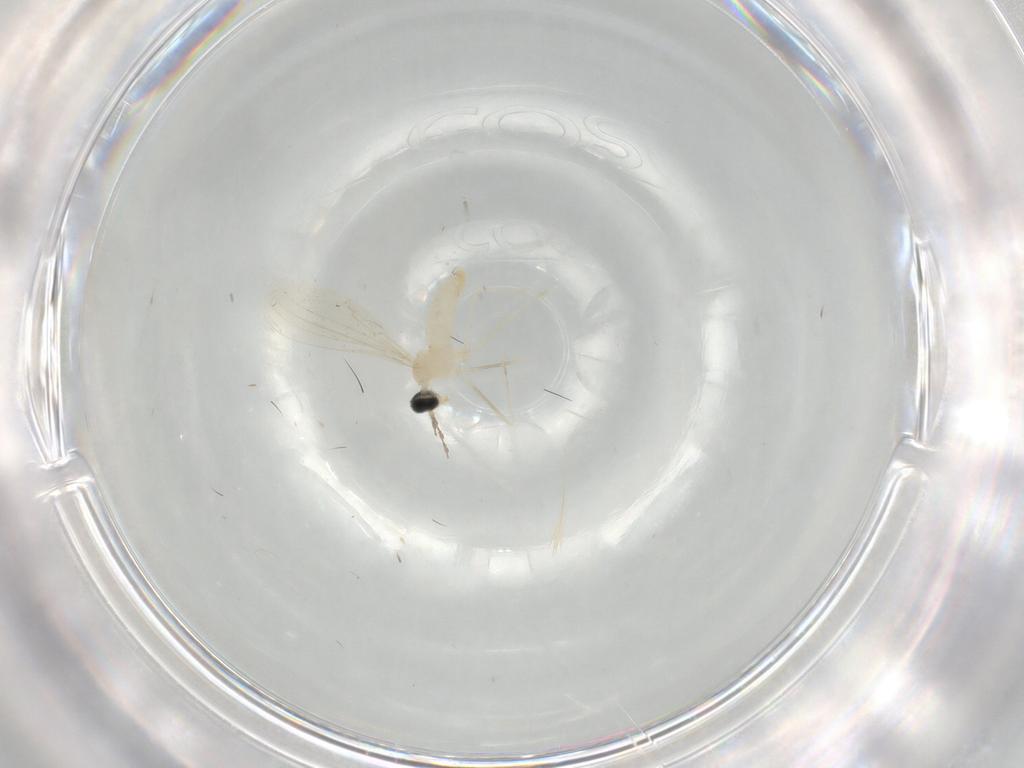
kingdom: Animalia
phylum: Arthropoda
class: Insecta
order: Diptera
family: Cecidomyiidae
